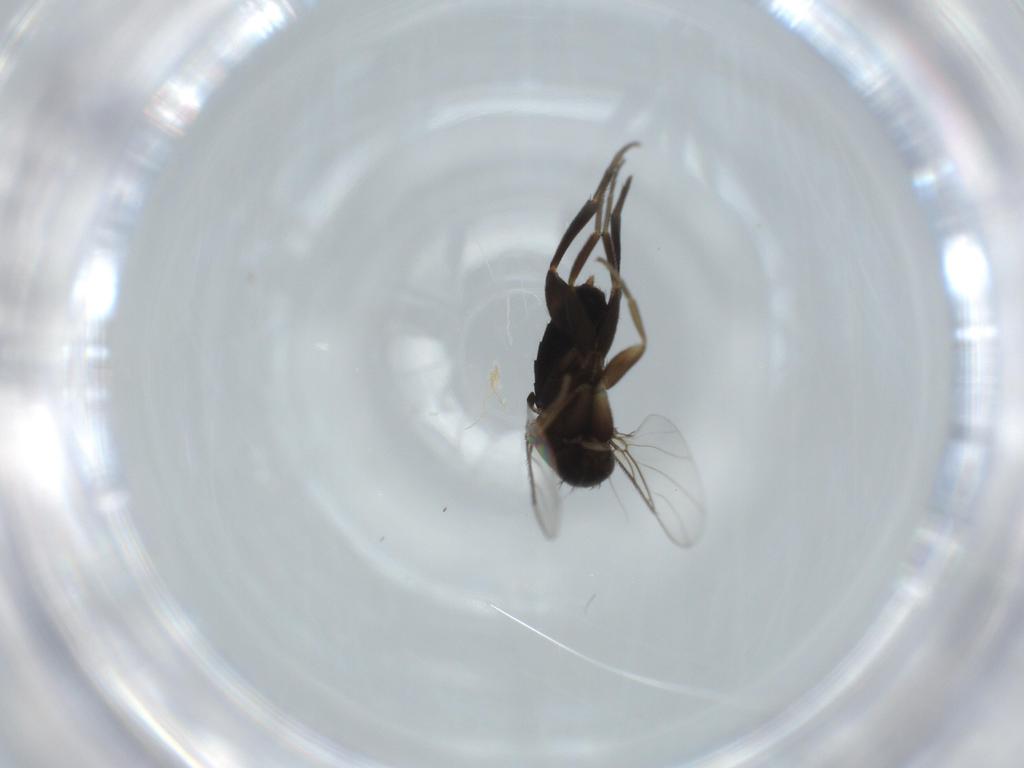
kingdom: Animalia
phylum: Arthropoda
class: Insecta
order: Diptera
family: Phoridae
